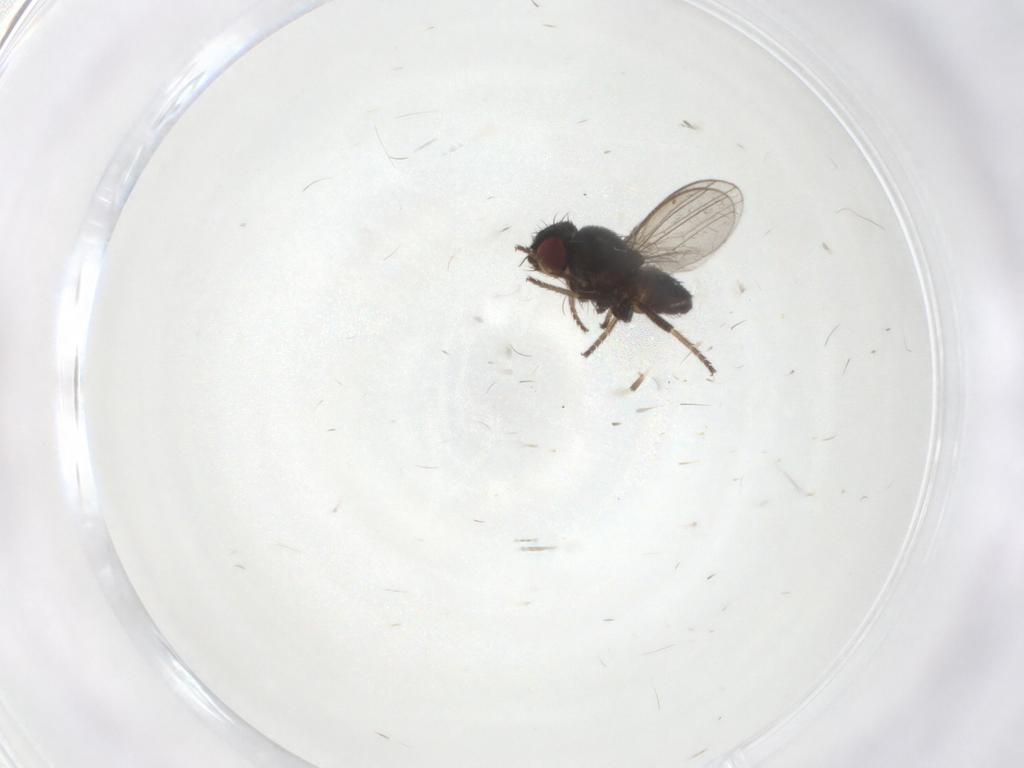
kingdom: Animalia
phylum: Arthropoda
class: Insecta
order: Diptera
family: Milichiidae
